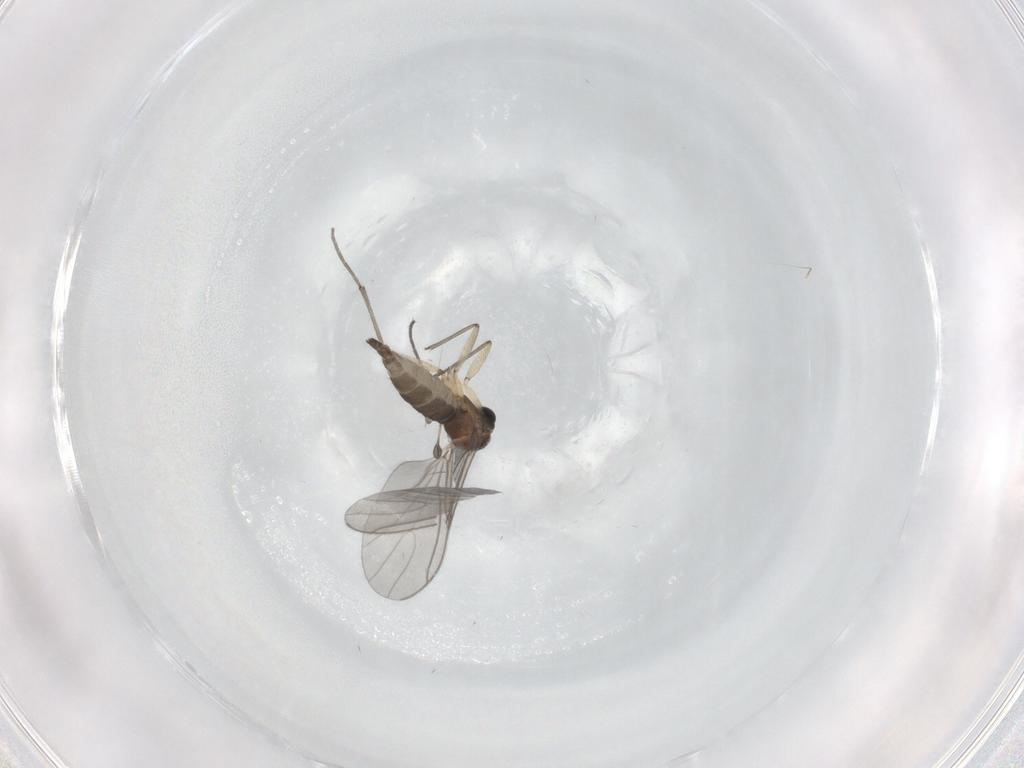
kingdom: Animalia
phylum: Arthropoda
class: Insecta
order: Diptera
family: Sciaridae
